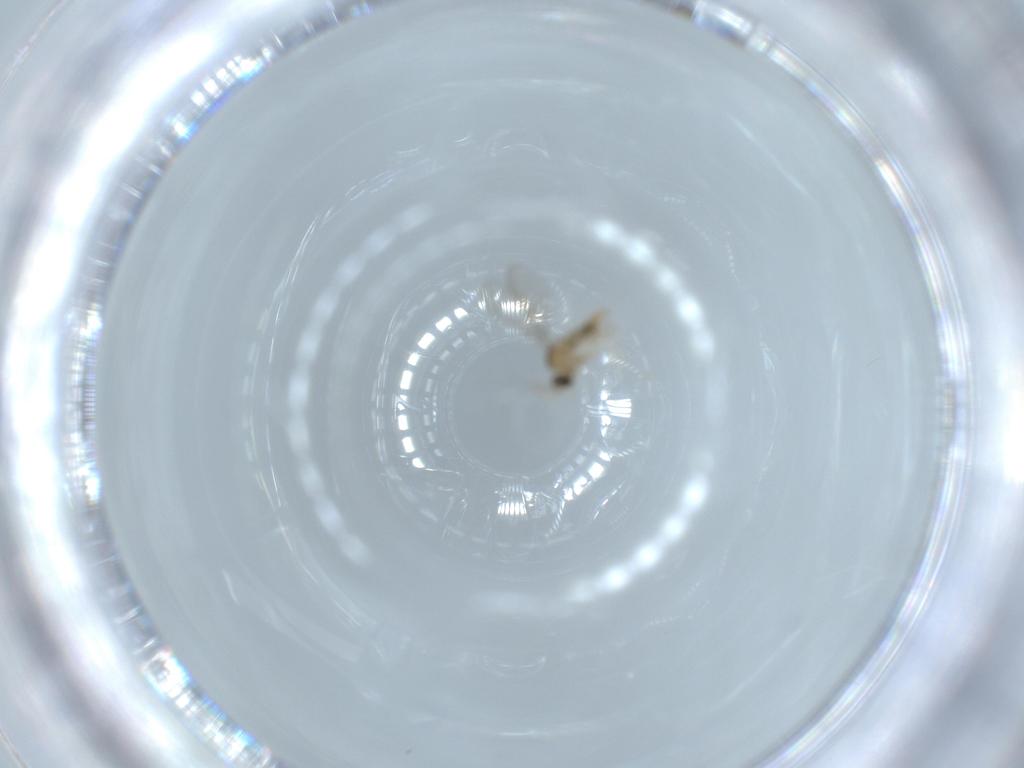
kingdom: Animalia
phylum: Arthropoda
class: Insecta
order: Diptera
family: Cecidomyiidae
